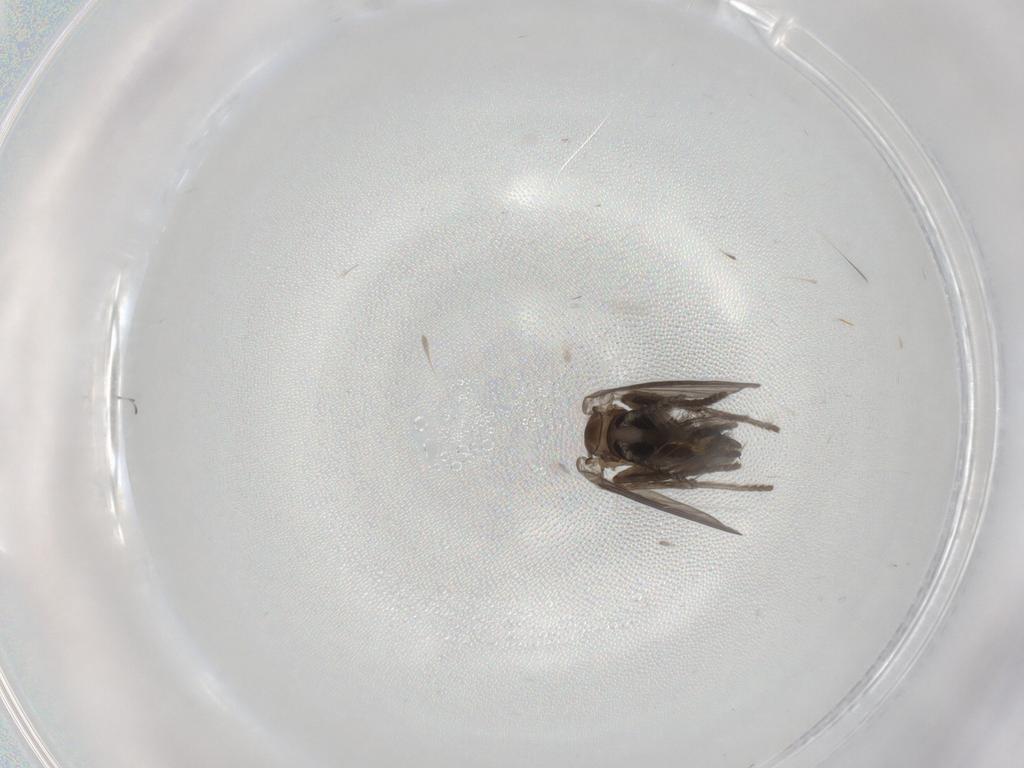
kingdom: Animalia
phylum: Arthropoda
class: Insecta
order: Diptera
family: Psychodidae
